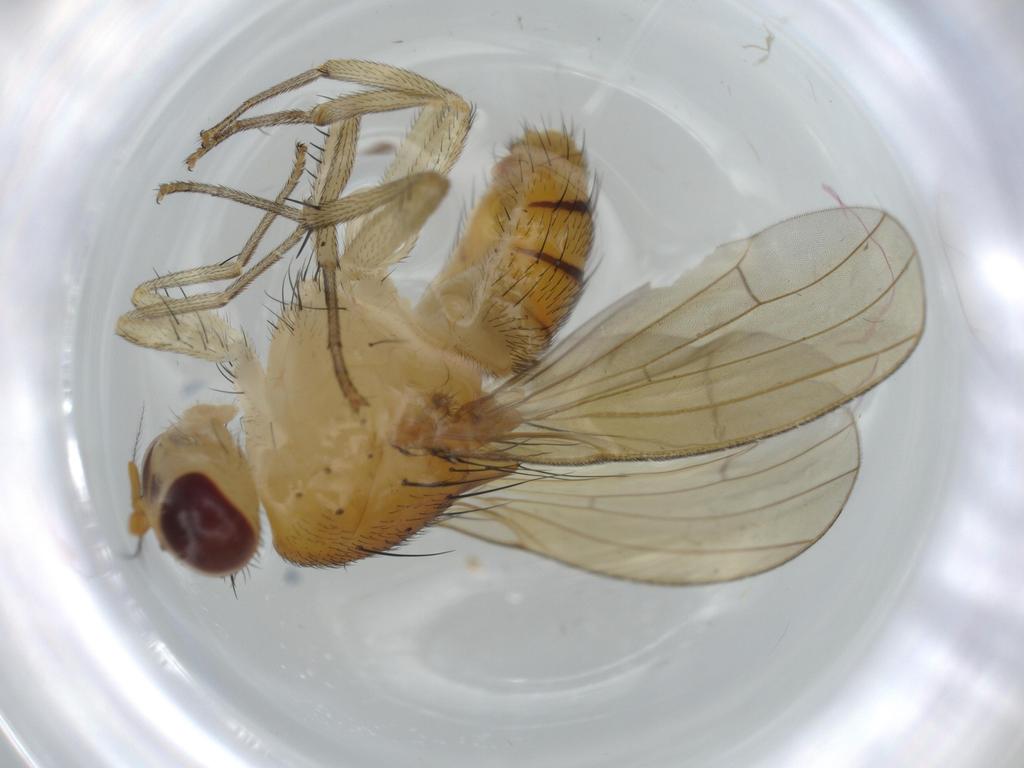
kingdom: Animalia
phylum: Arthropoda
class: Insecta
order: Diptera
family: Cecidomyiidae
